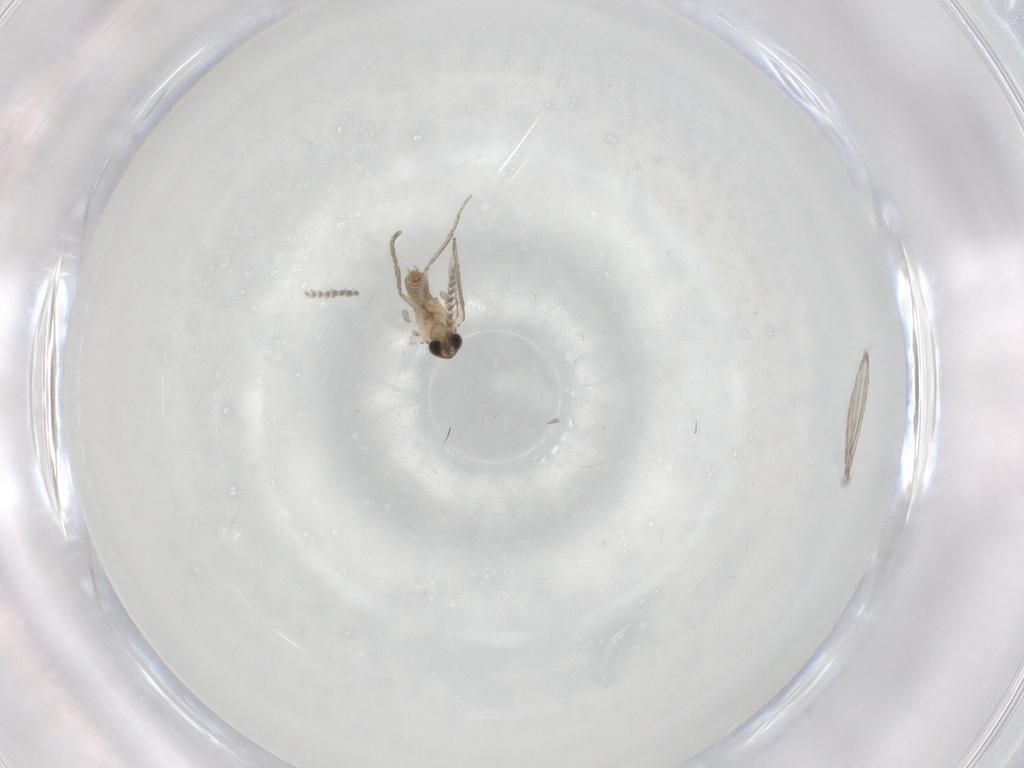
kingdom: Animalia
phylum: Arthropoda
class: Insecta
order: Diptera
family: Psychodidae
